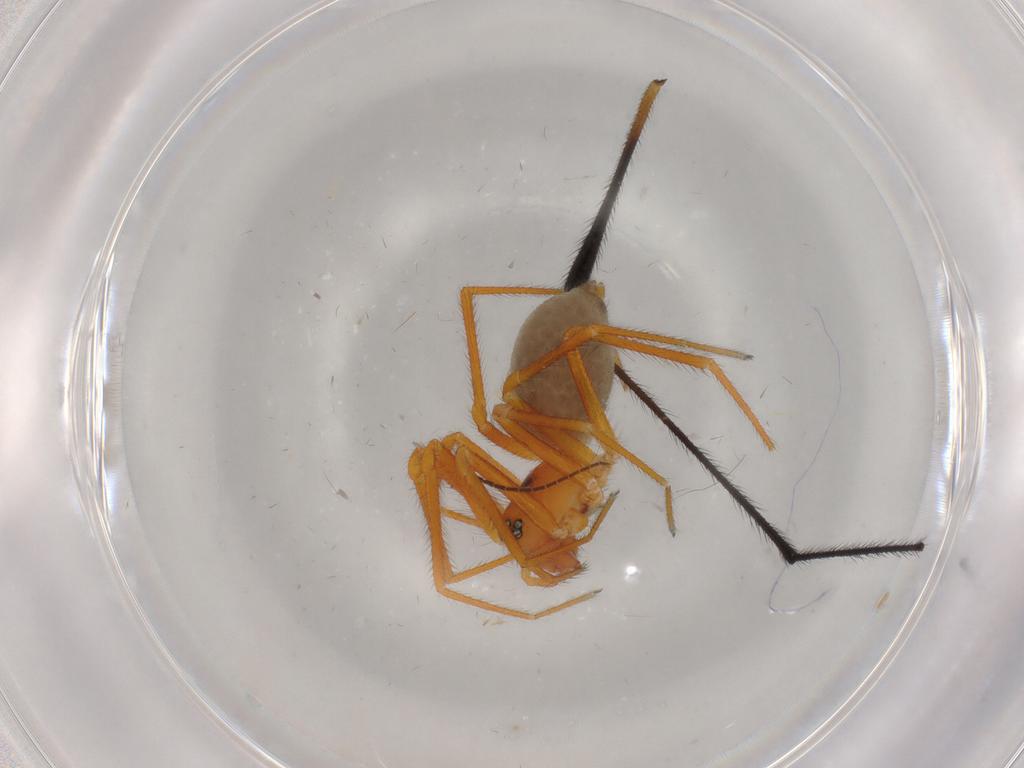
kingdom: Animalia
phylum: Arthropoda
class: Arachnida
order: Araneae
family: Linyphiidae
